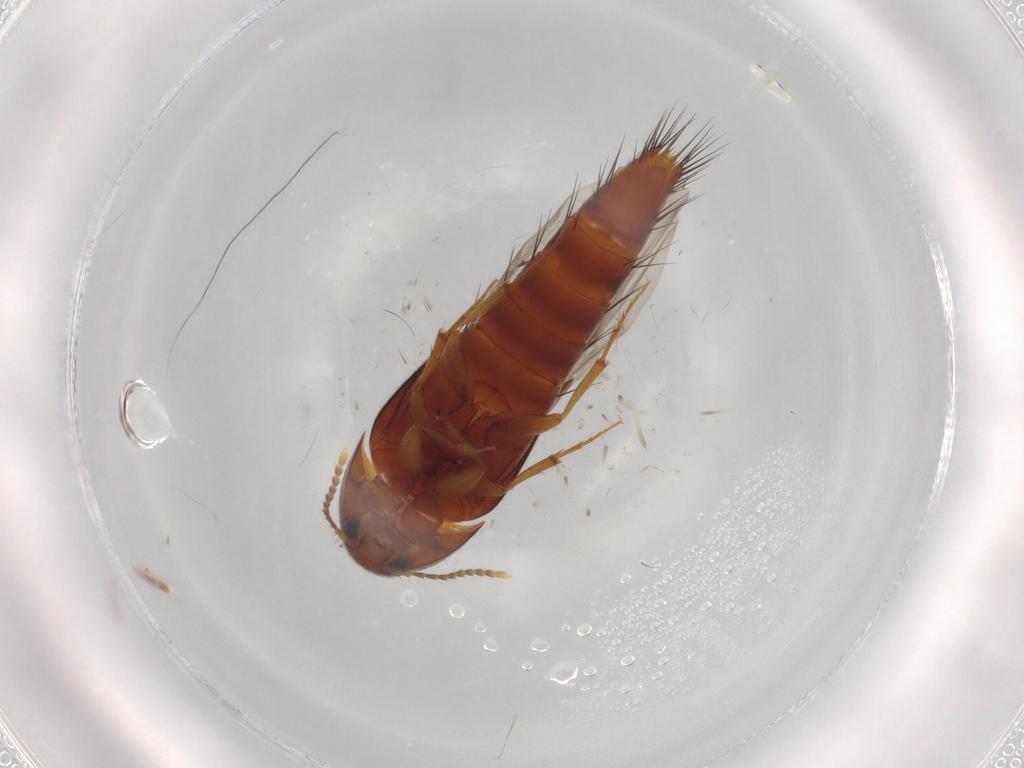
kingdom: Animalia
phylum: Arthropoda
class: Insecta
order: Coleoptera
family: Staphylinidae
